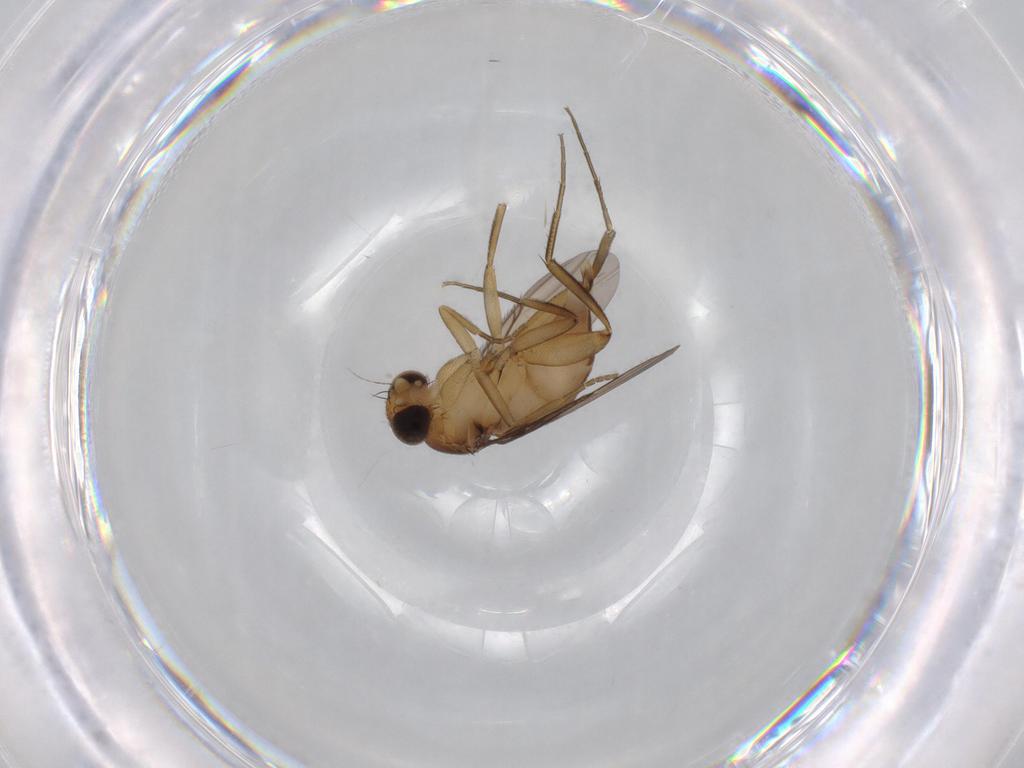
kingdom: Animalia
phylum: Arthropoda
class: Insecta
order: Diptera
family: Phoridae
